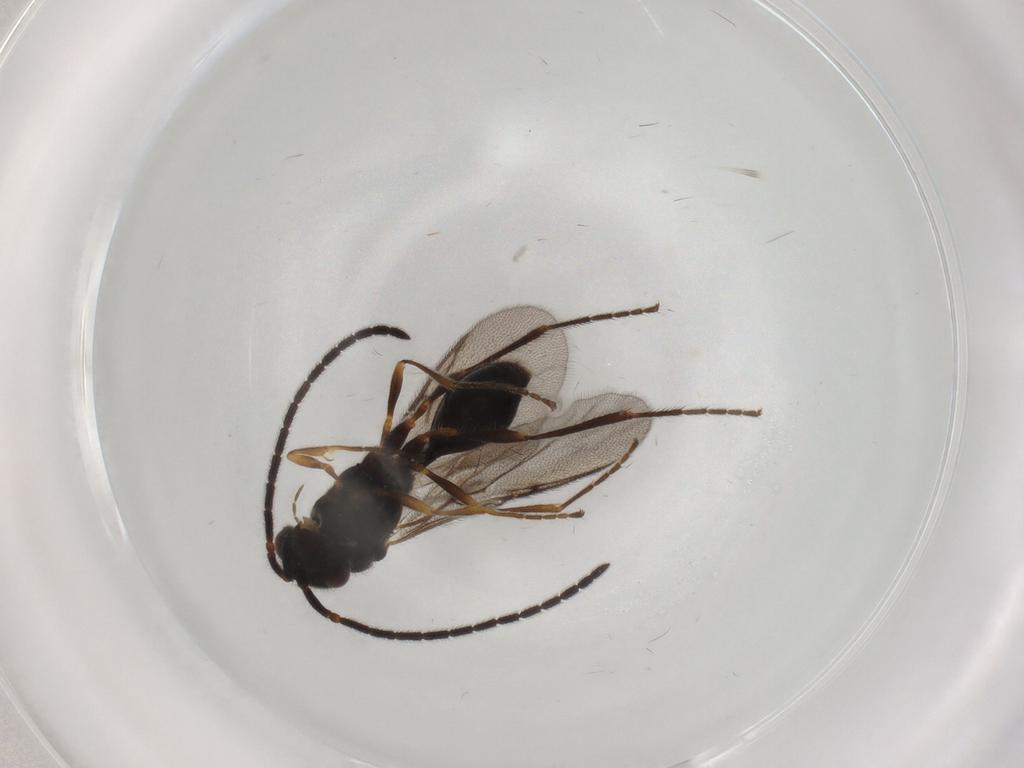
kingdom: Animalia
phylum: Arthropoda
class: Insecta
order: Hymenoptera
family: Diapriidae
